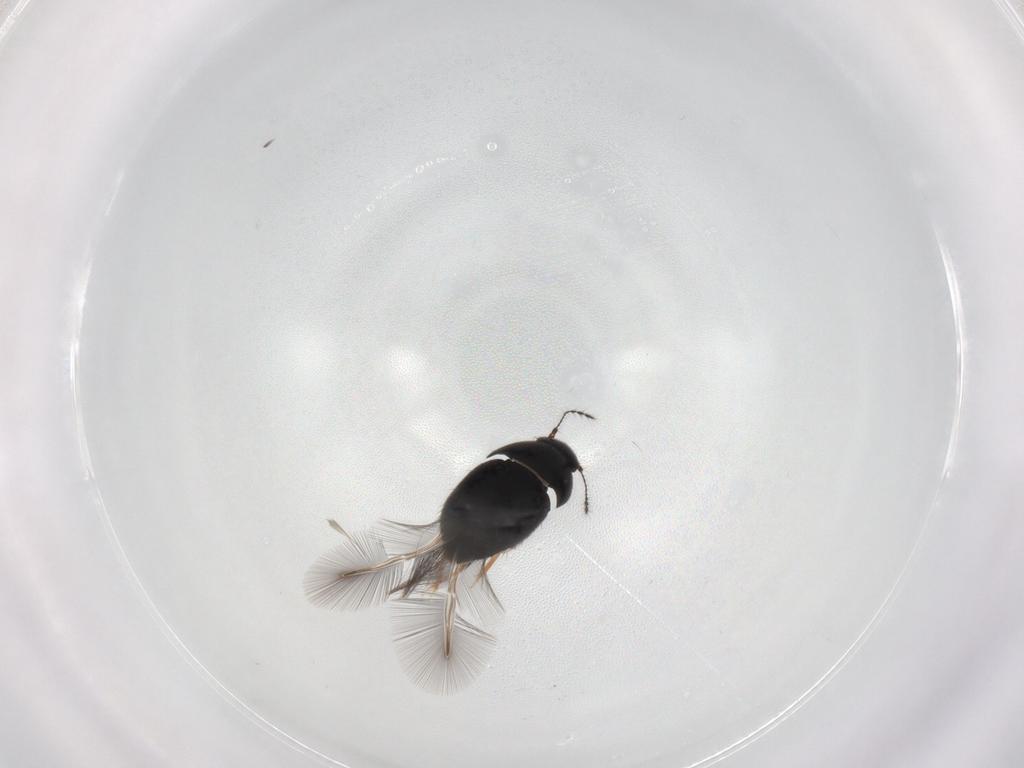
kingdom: Animalia
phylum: Arthropoda
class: Insecta
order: Coleoptera
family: Ptiliidae
